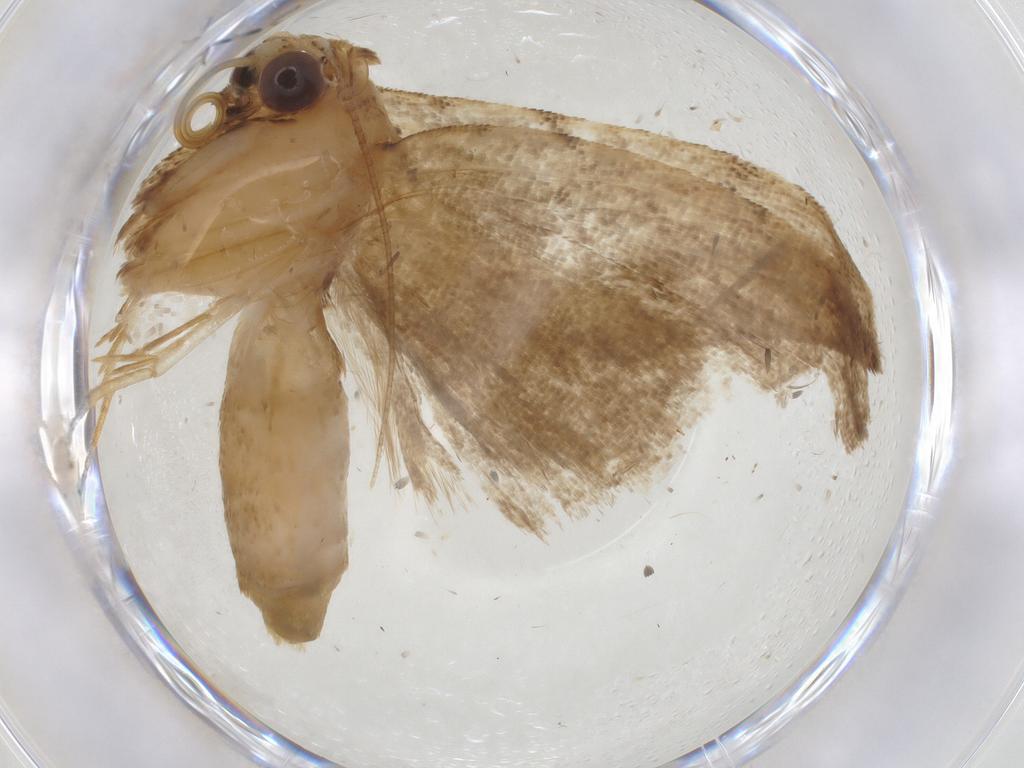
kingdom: Animalia
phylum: Arthropoda
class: Insecta
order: Lepidoptera
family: Erebidae
